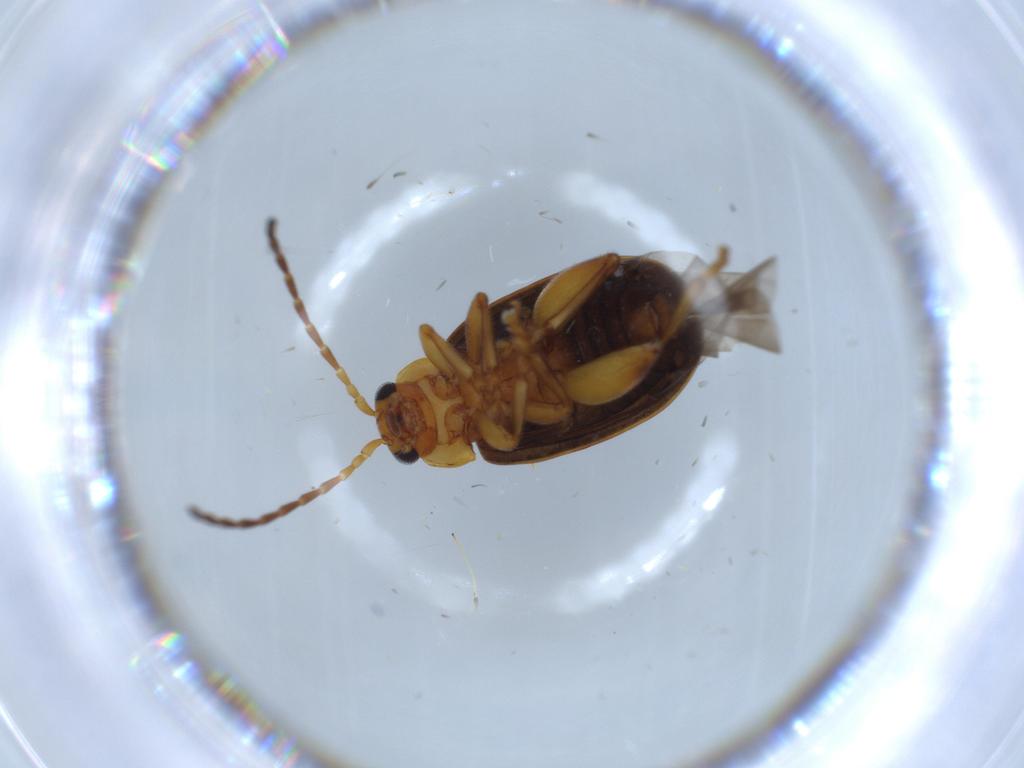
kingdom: Animalia
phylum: Arthropoda
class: Insecta
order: Coleoptera
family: Chrysomelidae
